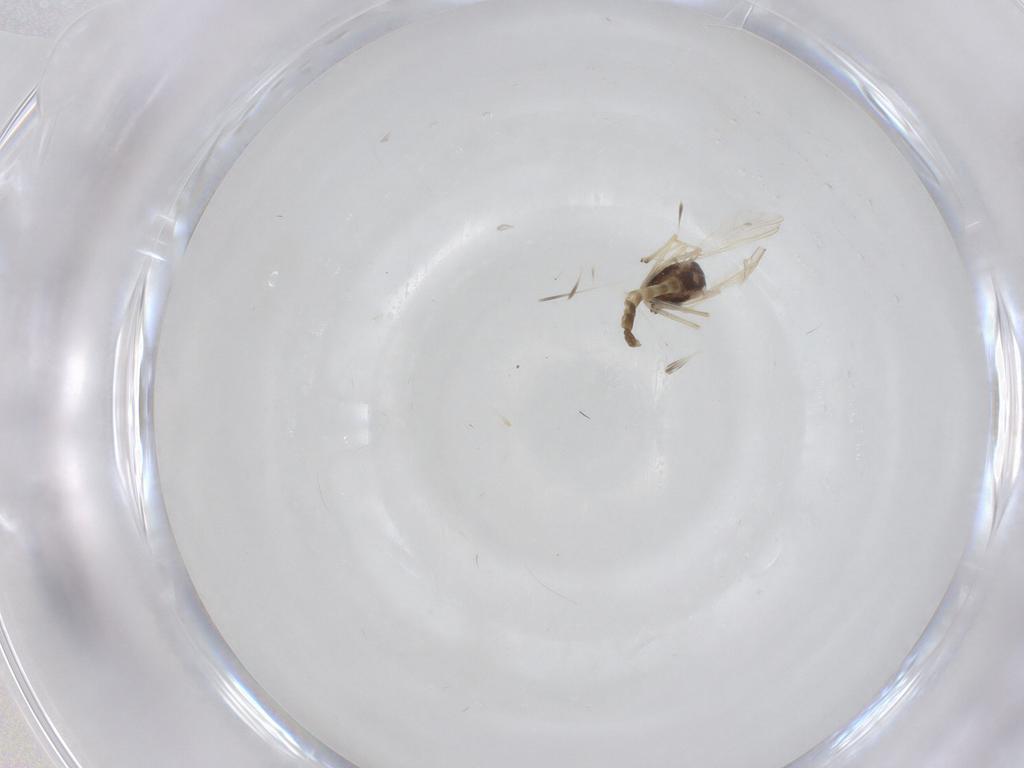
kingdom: Animalia
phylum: Arthropoda
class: Insecta
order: Diptera
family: Chironomidae
